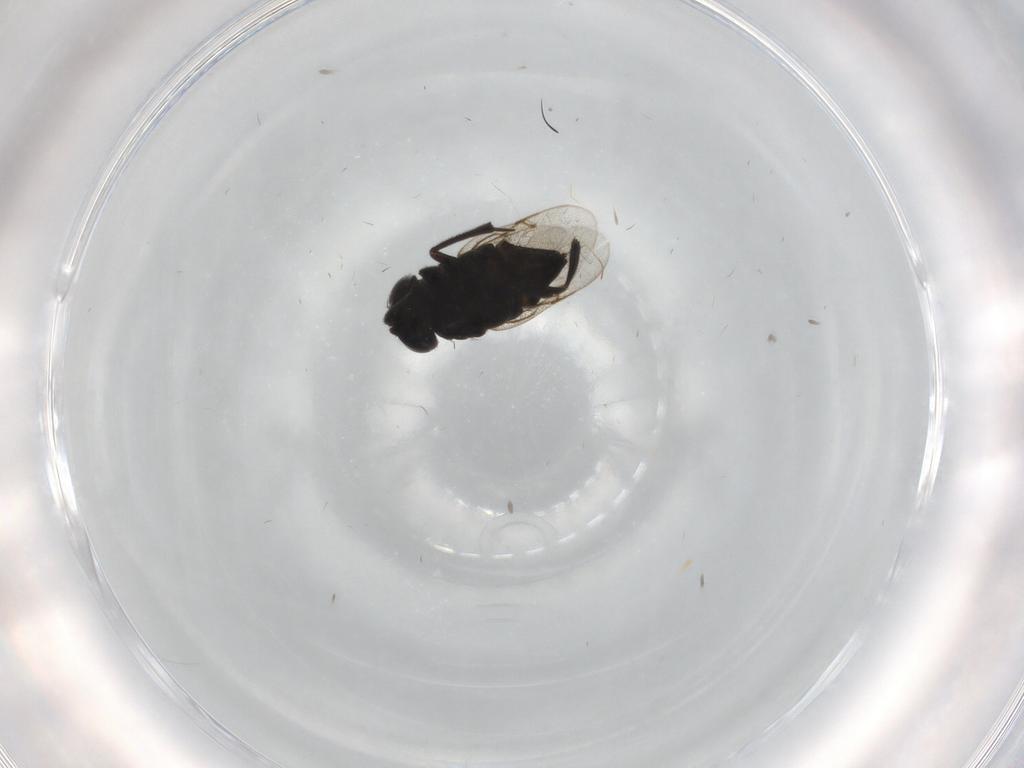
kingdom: Animalia
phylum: Arthropoda
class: Insecta
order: Hymenoptera
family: Encyrtidae
